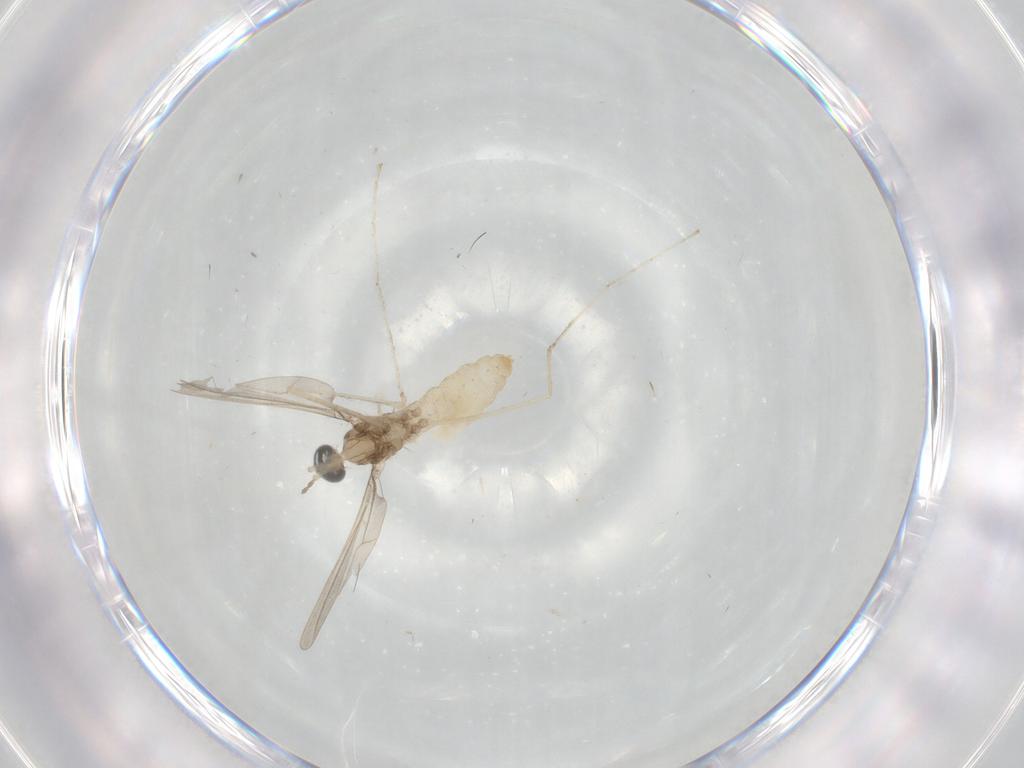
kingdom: Animalia
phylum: Arthropoda
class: Insecta
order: Diptera
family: Cecidomyiidae
